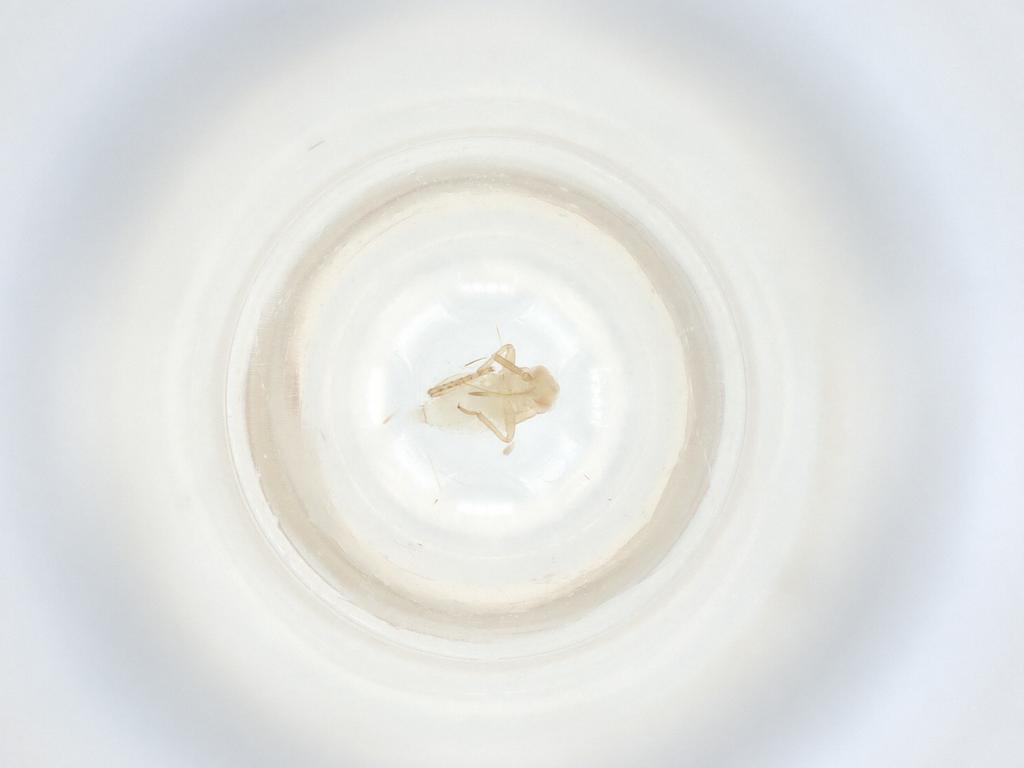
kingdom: Animalia
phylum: Arthropoda
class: Insecta
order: Hemiptera
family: Miridae
